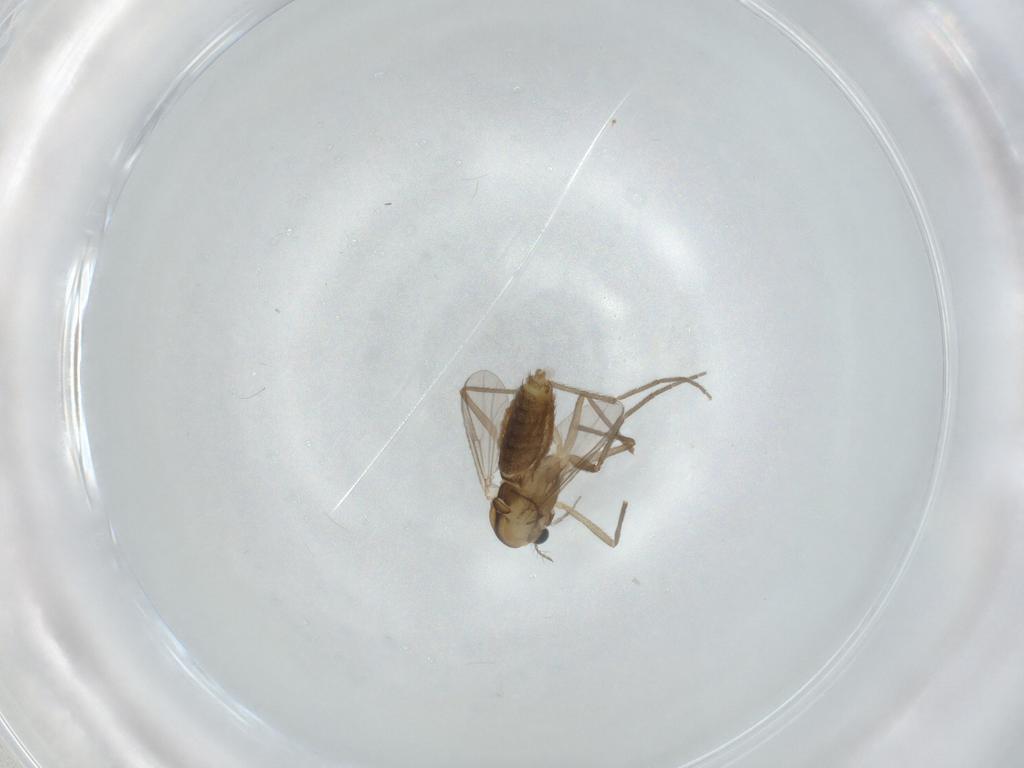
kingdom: Animalia
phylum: Arthropoda
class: Insecta
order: Diptera
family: Chironomidae
